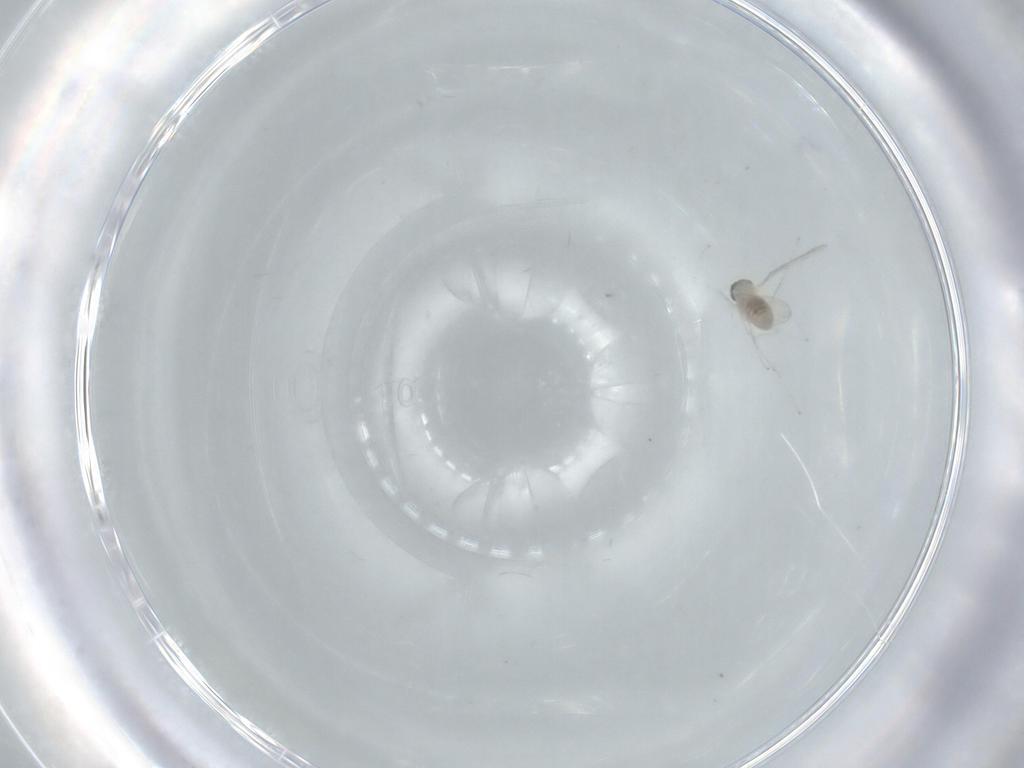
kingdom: Animalia
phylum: Arthropoda
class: Insecta
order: Diptera
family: Cecidomyiidae
